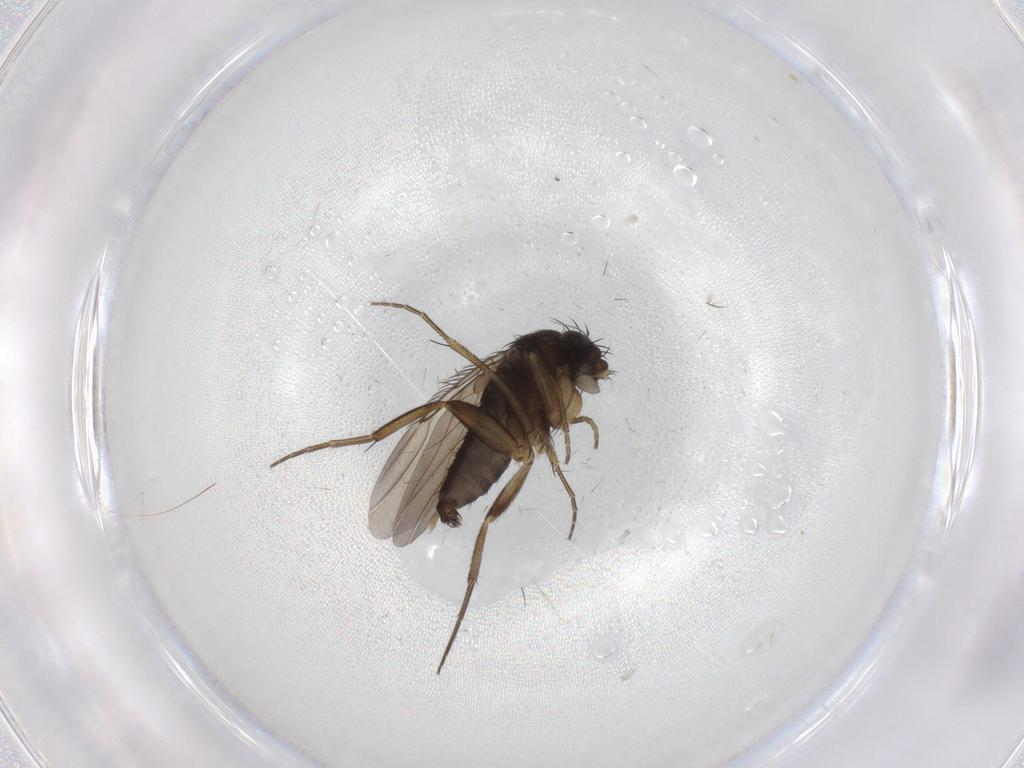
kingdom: Animalia
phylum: Arthropoda
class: Insecta
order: Diptera
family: Phoridae
